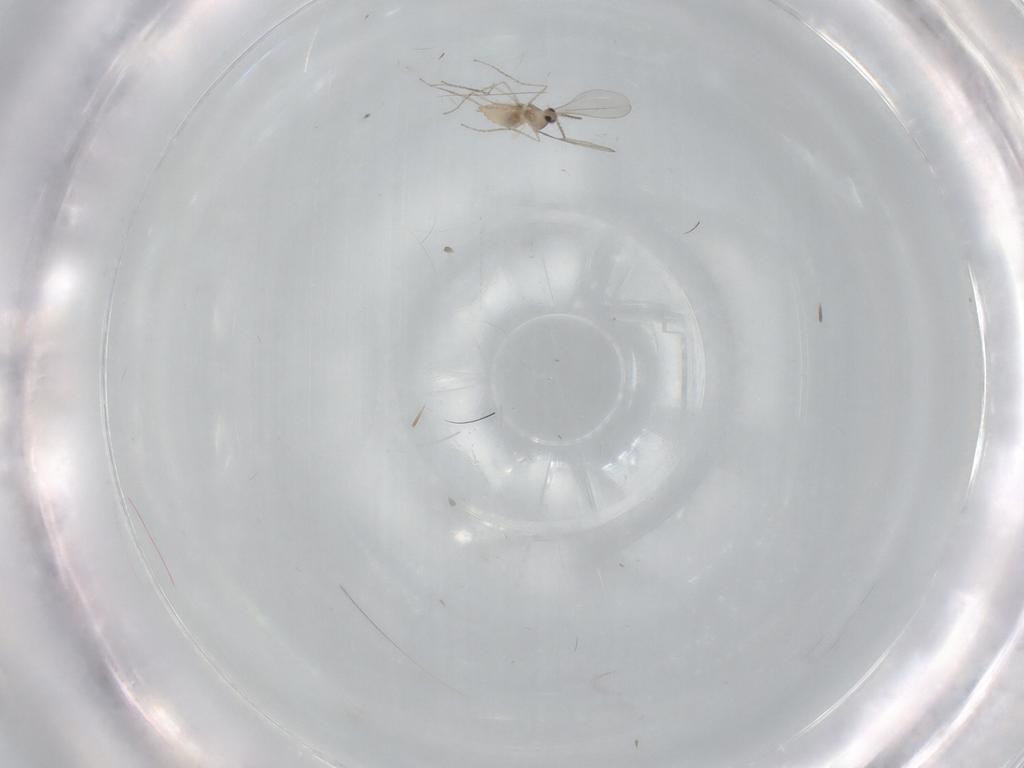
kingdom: Animalia
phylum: Arthropoda
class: Insecta
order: Diptera
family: Cecidomyiidae
